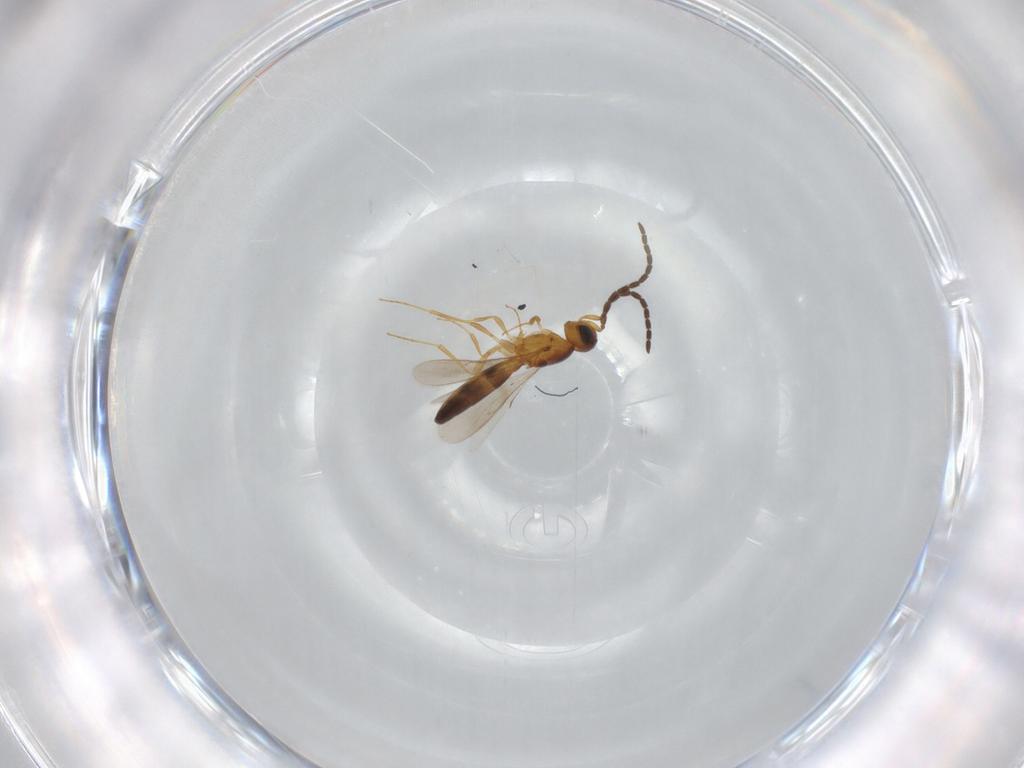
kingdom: Animalia
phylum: Arthropoda
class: Insecta
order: Hymenoptera
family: Scelionidae
